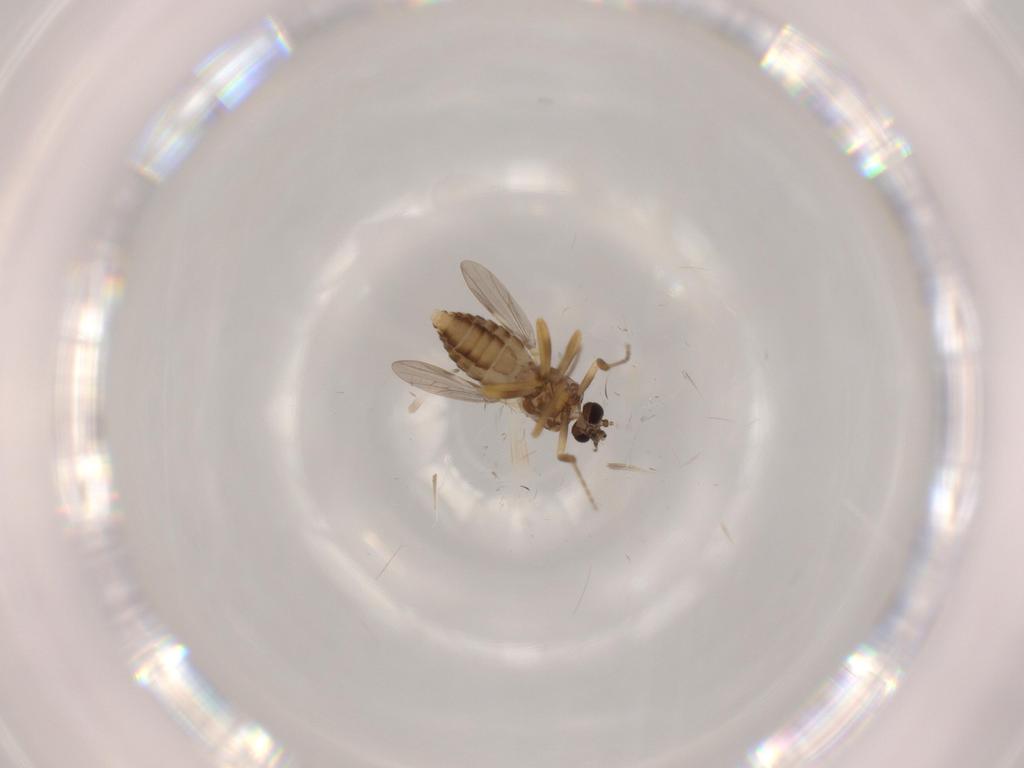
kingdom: Animalia
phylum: Arthropoda
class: Insecta
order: Diptera
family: Ceratopogonidae
